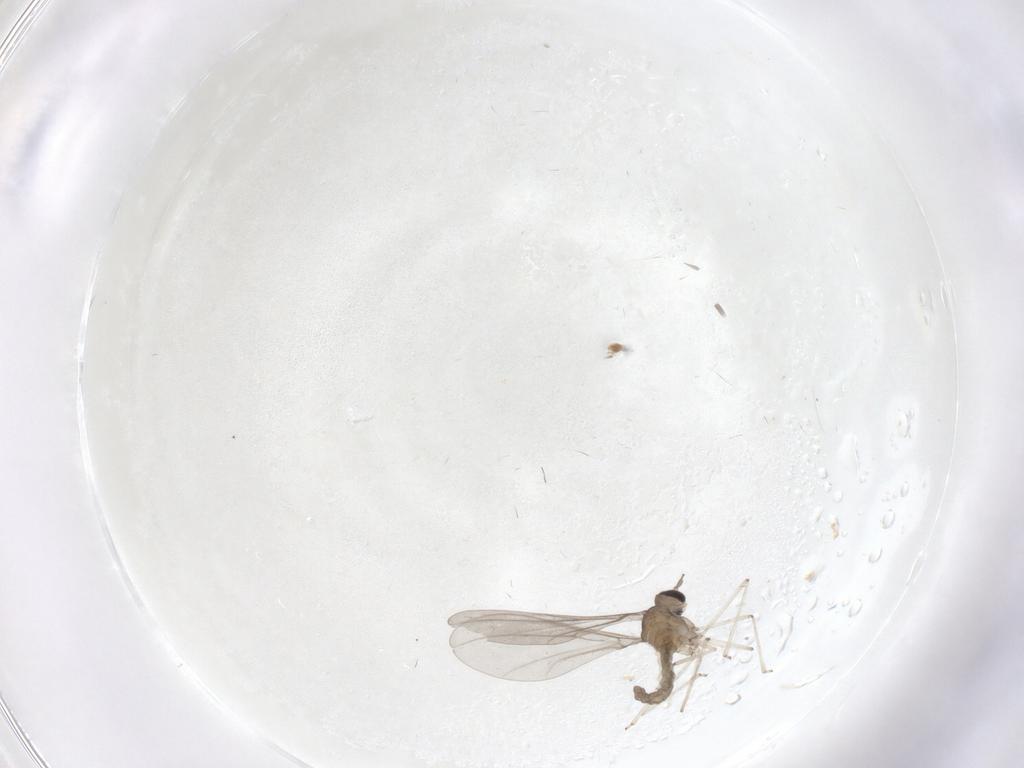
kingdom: Animalia
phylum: Arthropoda
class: Insecta
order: Diptera
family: Cecidomyiidae
